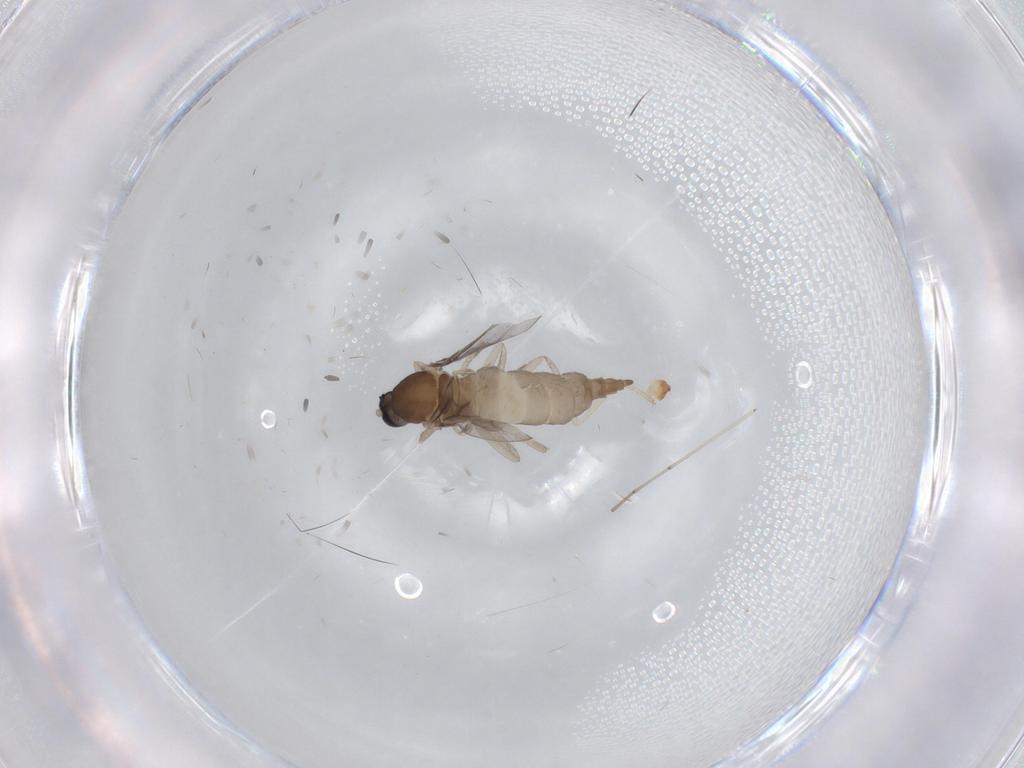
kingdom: Animalia
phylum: Arthropoda
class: Insecta
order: Diptera
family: Cecidomyiidae
